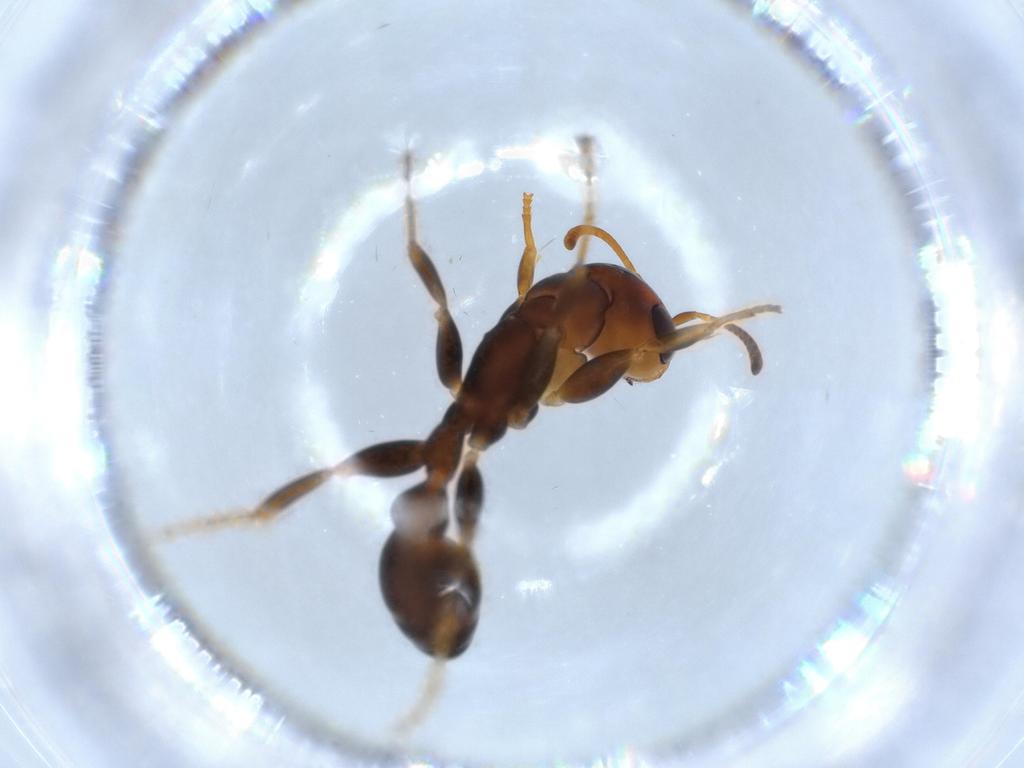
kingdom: Animalia
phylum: Arthropoda
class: Insecta
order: Hymenoptera
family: Formicidae
